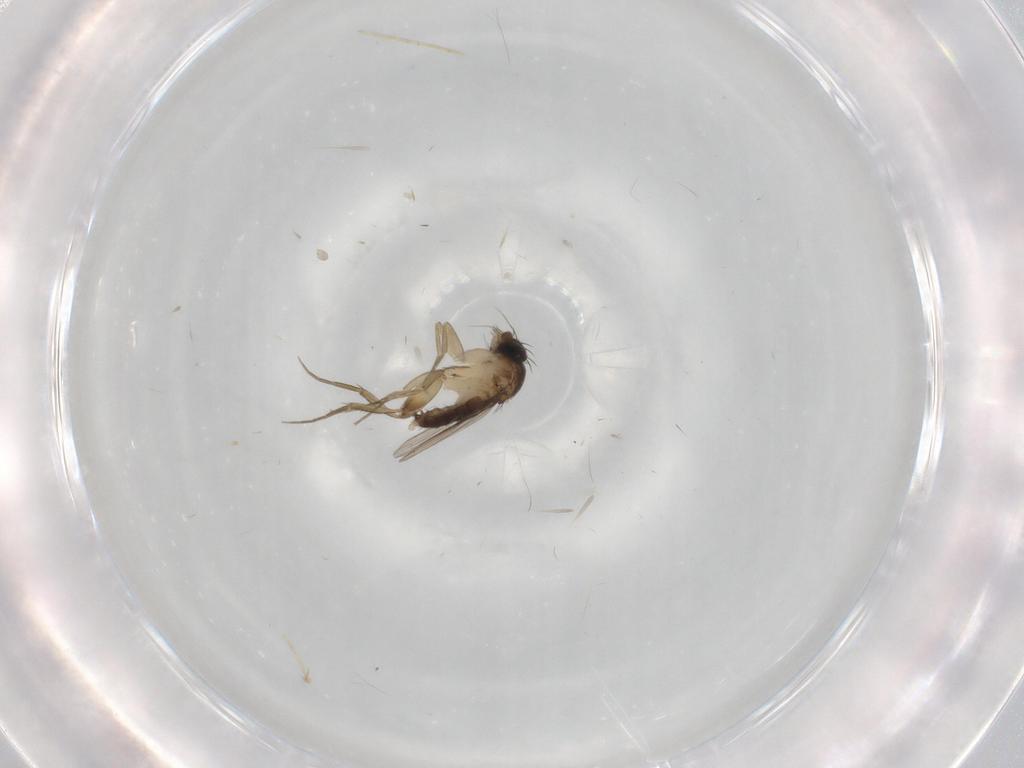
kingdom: Animalia
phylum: Arthropoda
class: Insecta
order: Diptera
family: Phoridae
